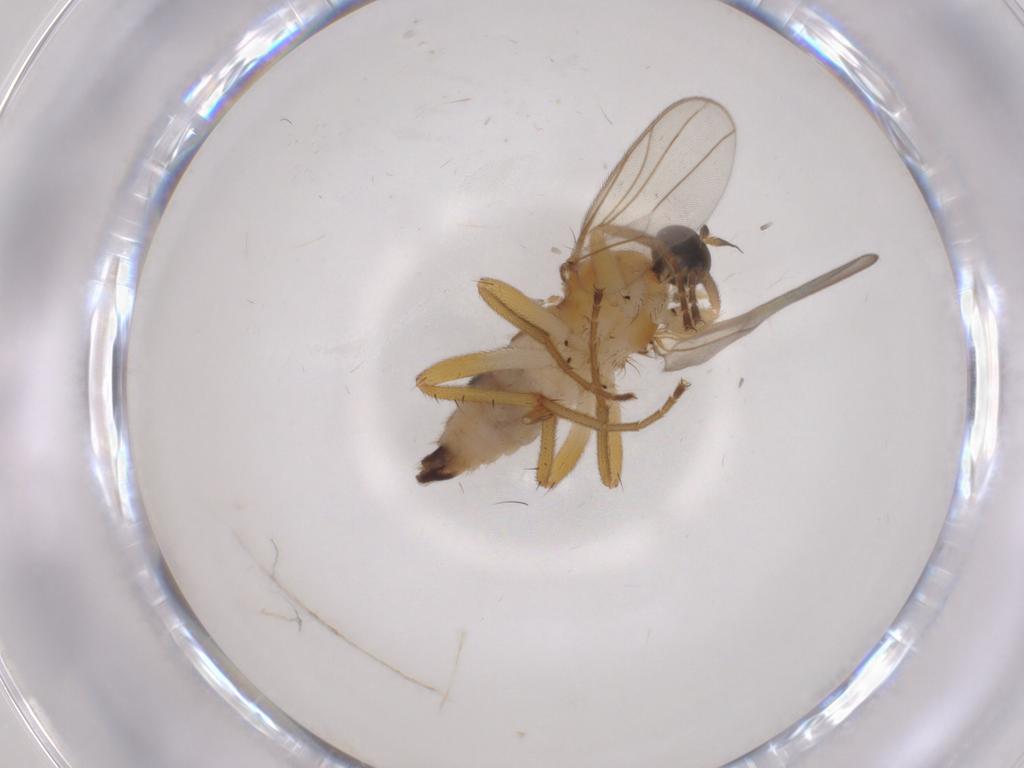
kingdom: Animalia
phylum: Arthropoda
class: Insecta
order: Diptera
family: Hybotidae
